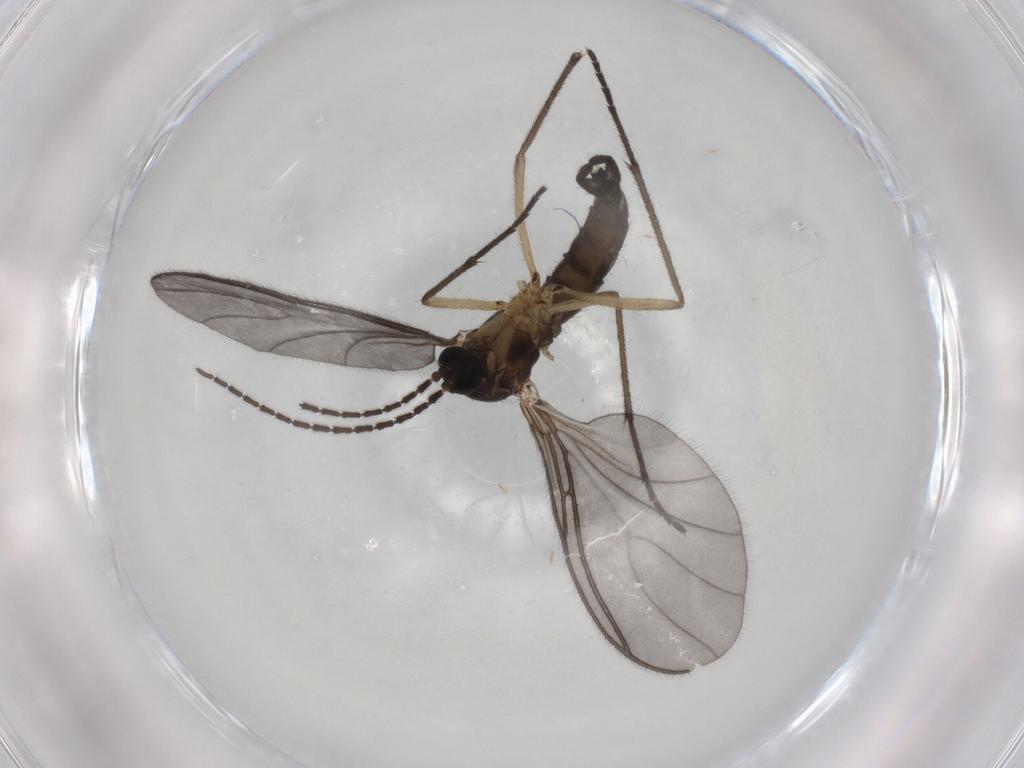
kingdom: Animalia
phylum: Arthropoda
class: Insecta
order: Diptera
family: Sciaridae
